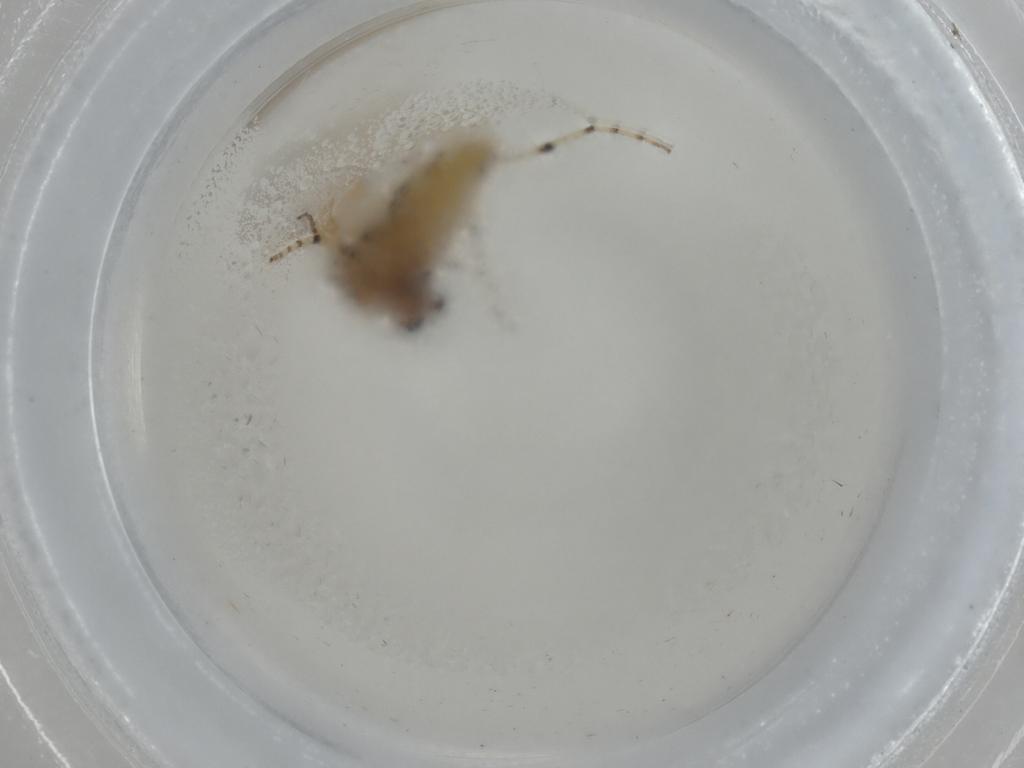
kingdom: Animalia
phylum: Arthropoda
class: Insecta
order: Diptera
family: Chironomidae
